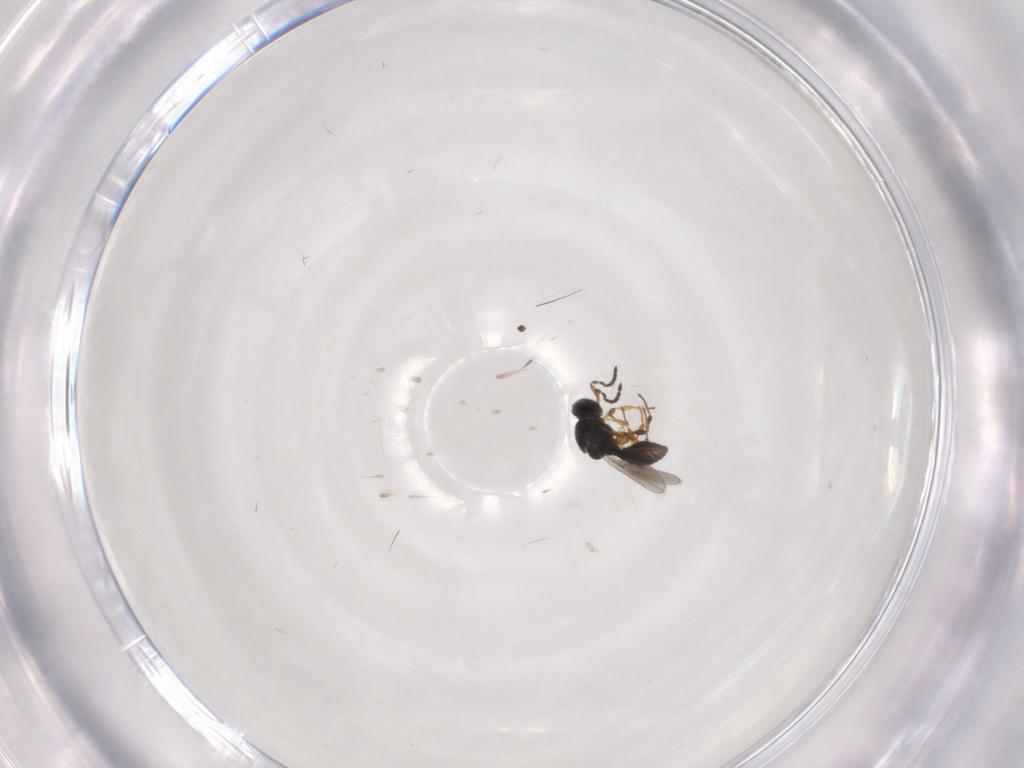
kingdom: Animalia
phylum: Arthropoda
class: Insecta
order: Hymenoptera
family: Platygastridae
